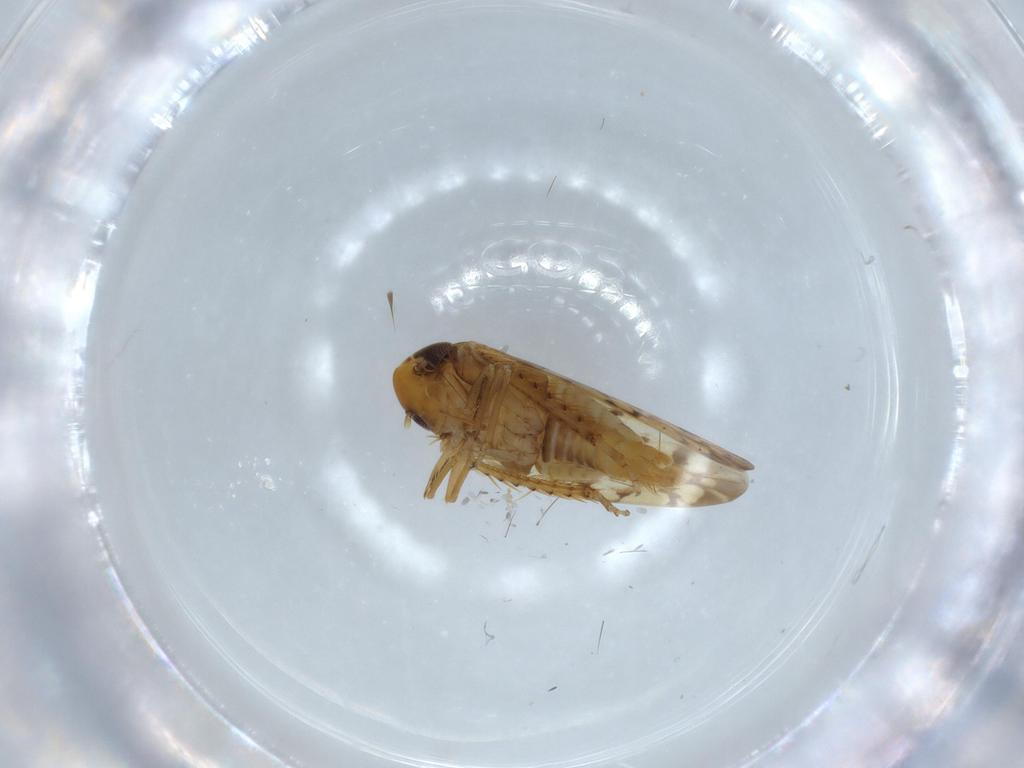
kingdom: Animalia
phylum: Arthropoda
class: Insecta
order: Hemiptera
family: Cicadellidae
